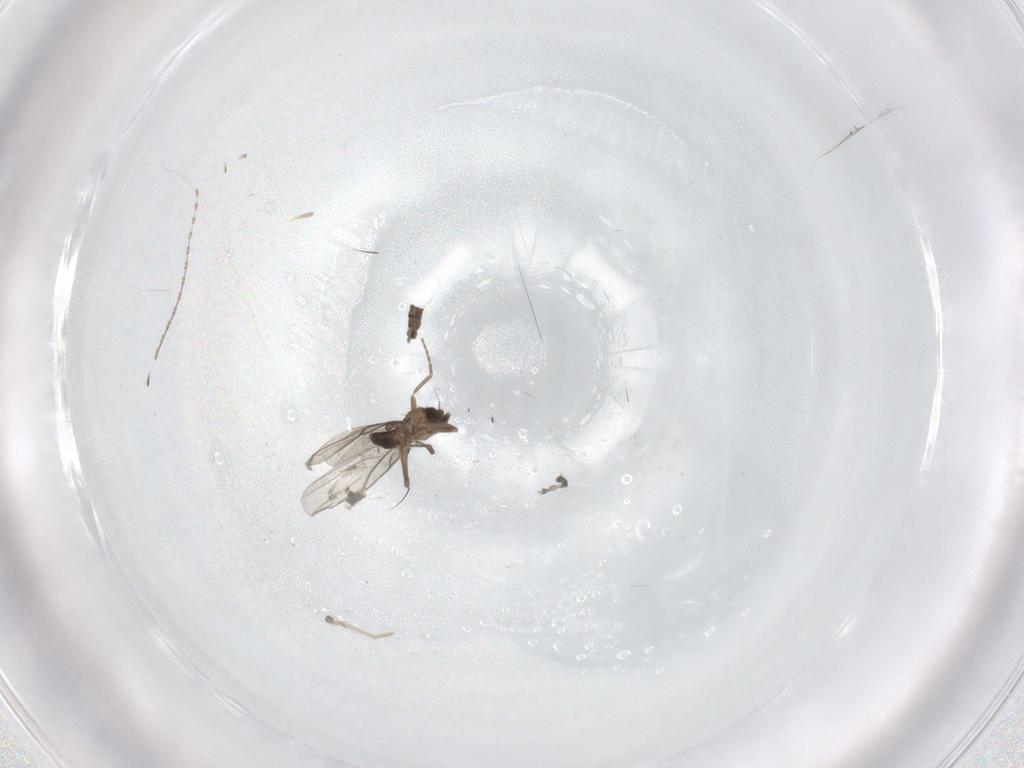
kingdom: Animalia
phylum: Arthropoda
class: Insecta
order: Diptera
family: Cecidomyiidae
